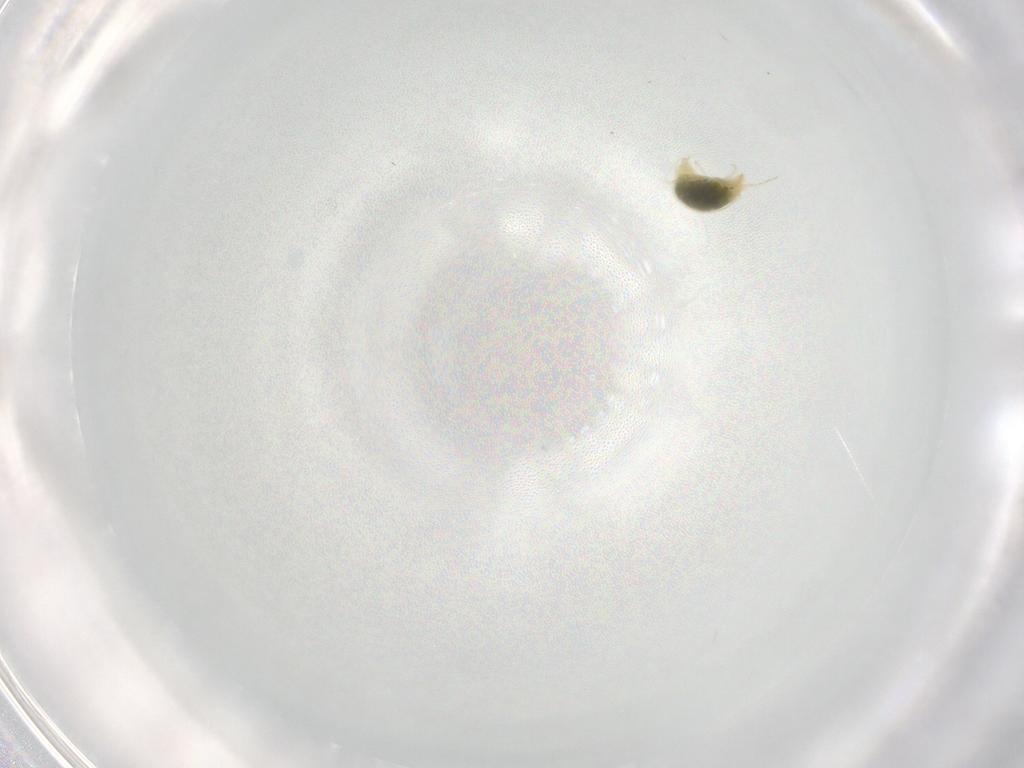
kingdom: Animalia
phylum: Arthropoda
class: Arachnida
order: Trombidiformes
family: Tetranychidae
